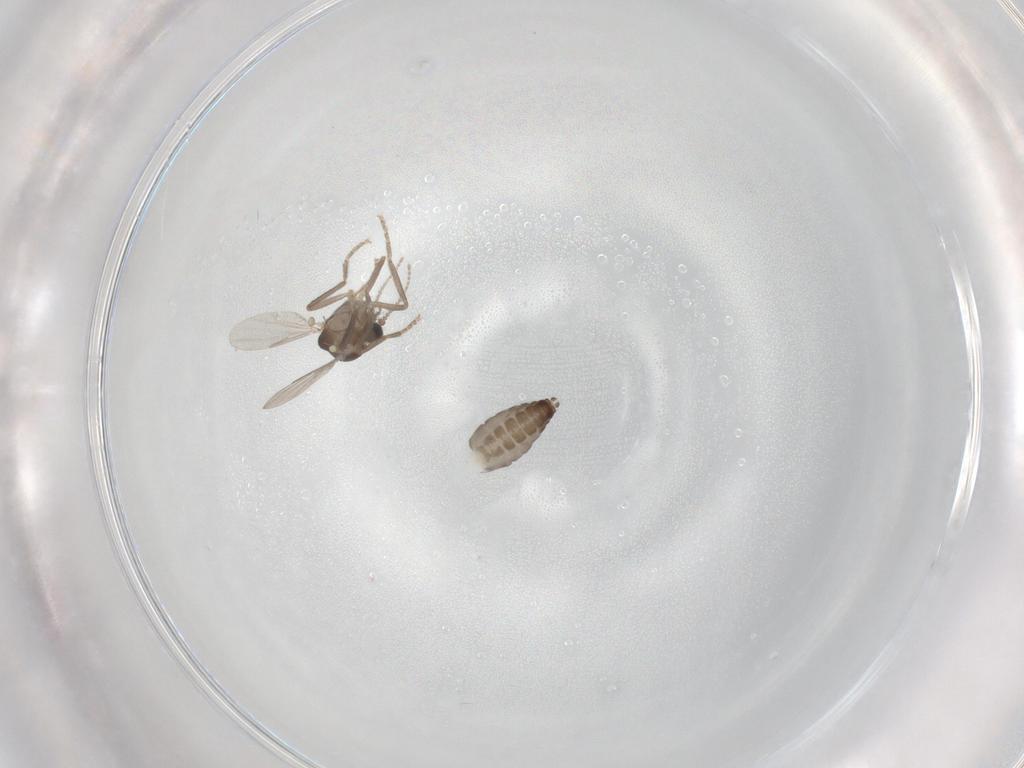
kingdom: Animalia
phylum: Arthropoda
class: Insecta
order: Diptera
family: Ceratopogonidae
